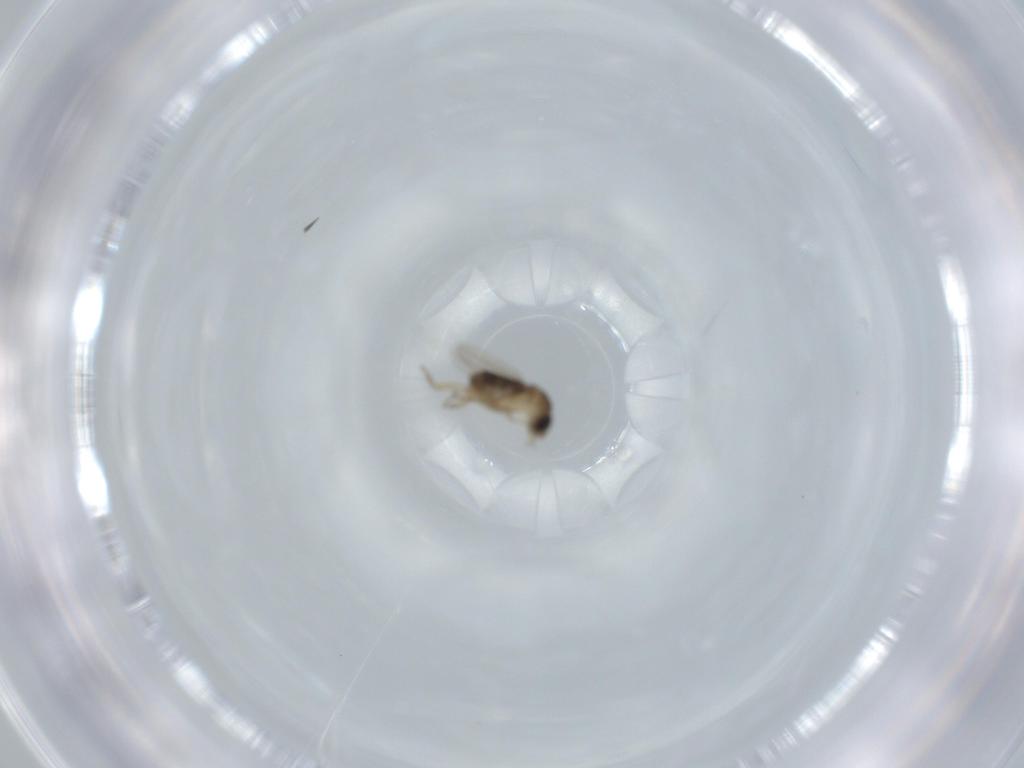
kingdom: Animalia
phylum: Arthropoda
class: Insecta
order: Diptera
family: Phoridae
